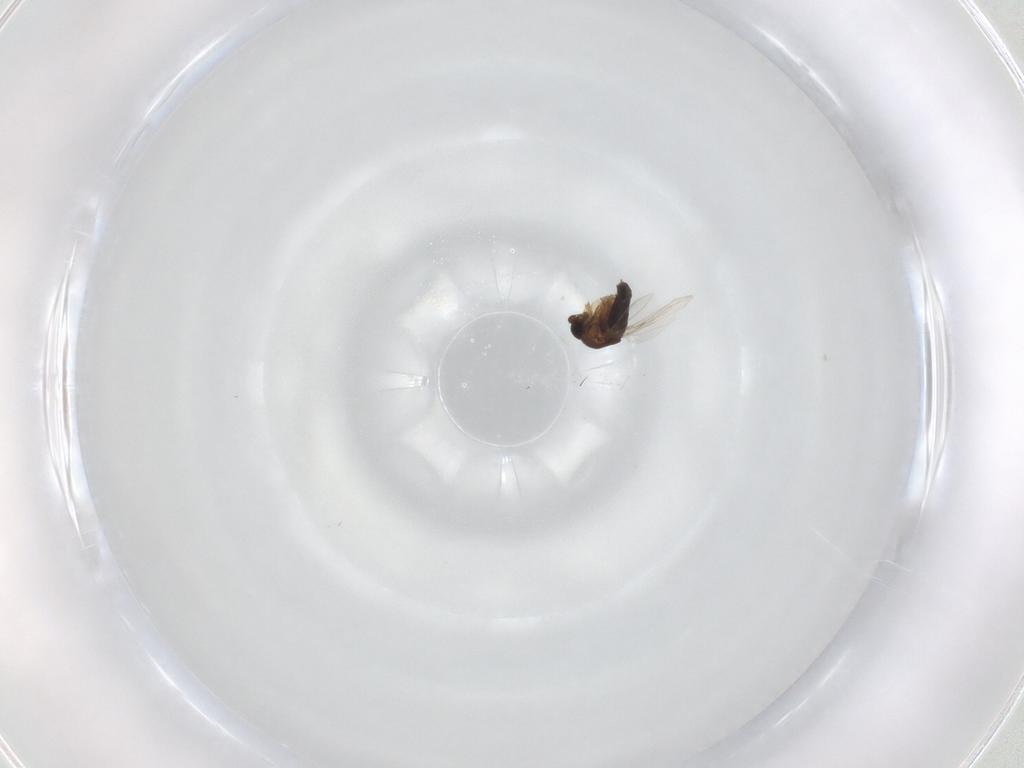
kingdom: Animalia
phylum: Arthropoda
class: Insecta
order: Diptera
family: Phoridae
